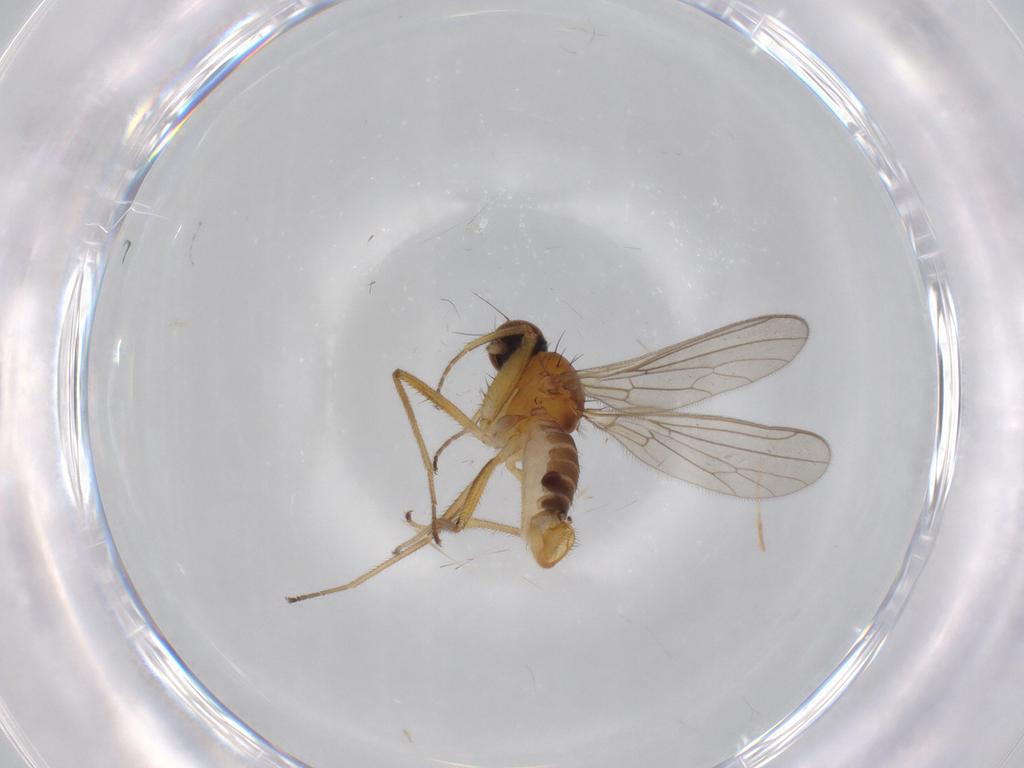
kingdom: Animalia
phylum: Arthropoda
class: Insecta
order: Diptera
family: Empididae
